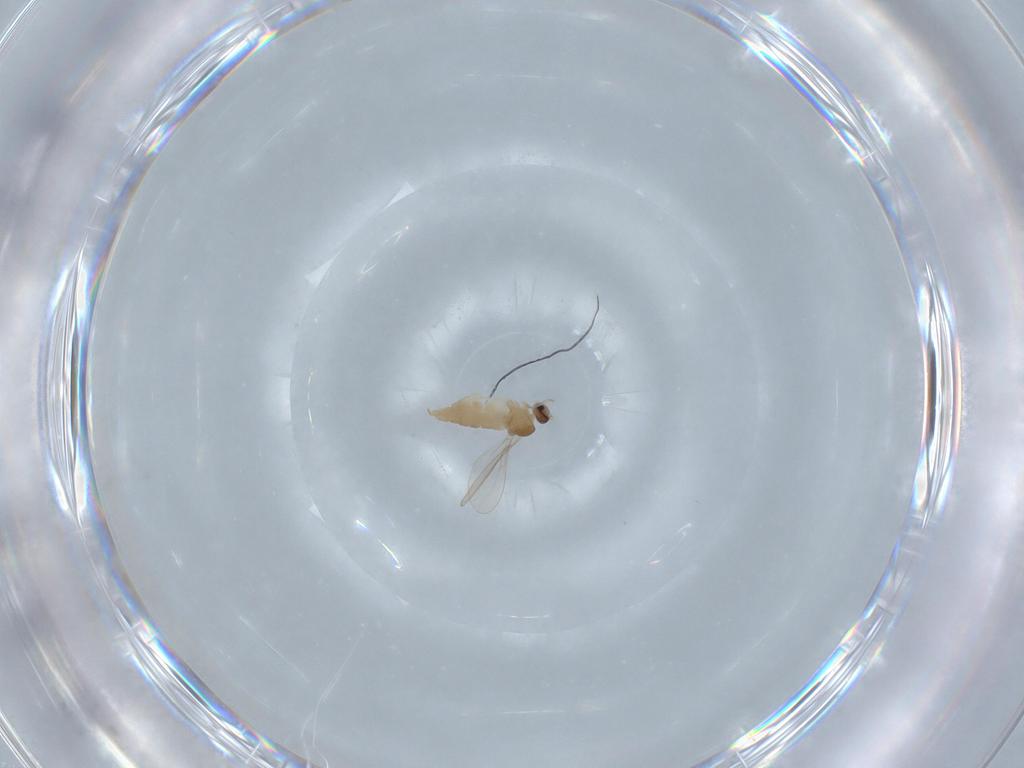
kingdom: Animalia
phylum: Arthropoda
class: Insecta
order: Diptera
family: Cecidomyiidae
